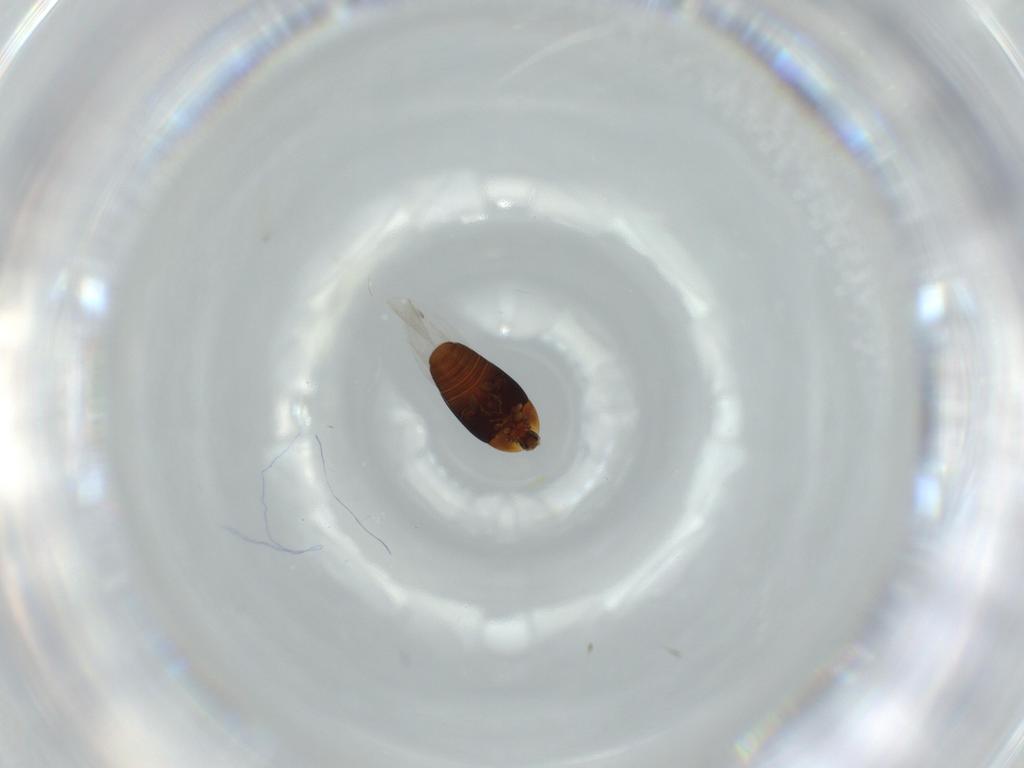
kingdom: Animalia
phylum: Arthropoda
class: Insecta
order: Coleoptera
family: Corylophidae
